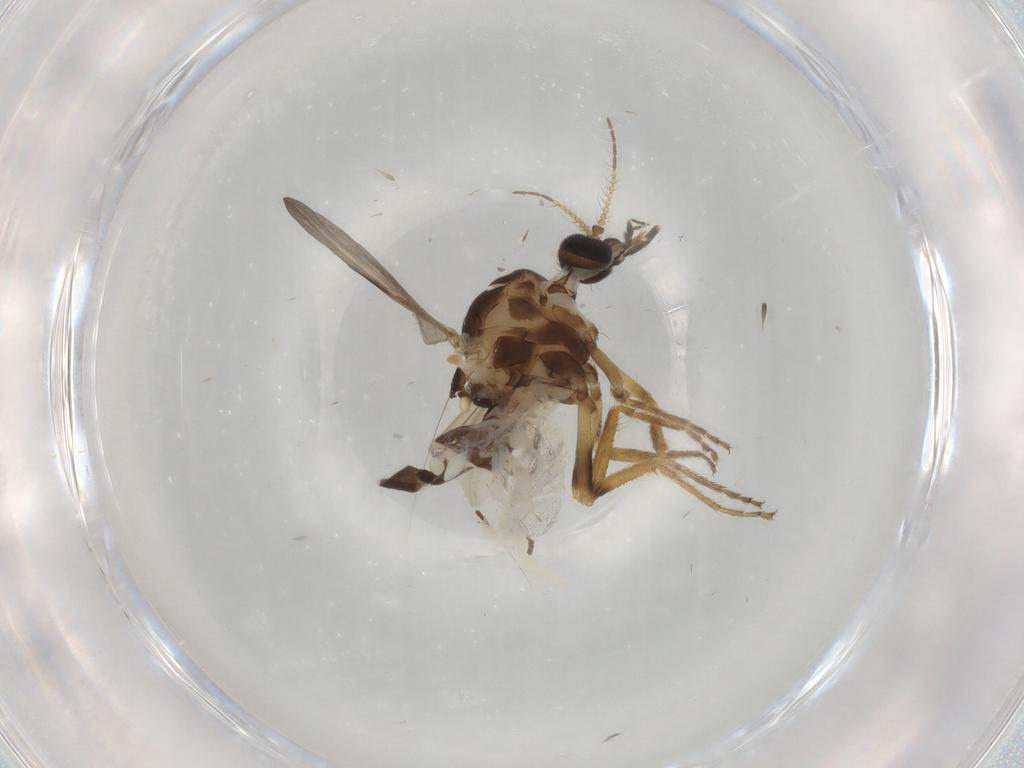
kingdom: Animalia
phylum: Arthropoda
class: Insecta
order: Diptera
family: Ceratopogonidae
